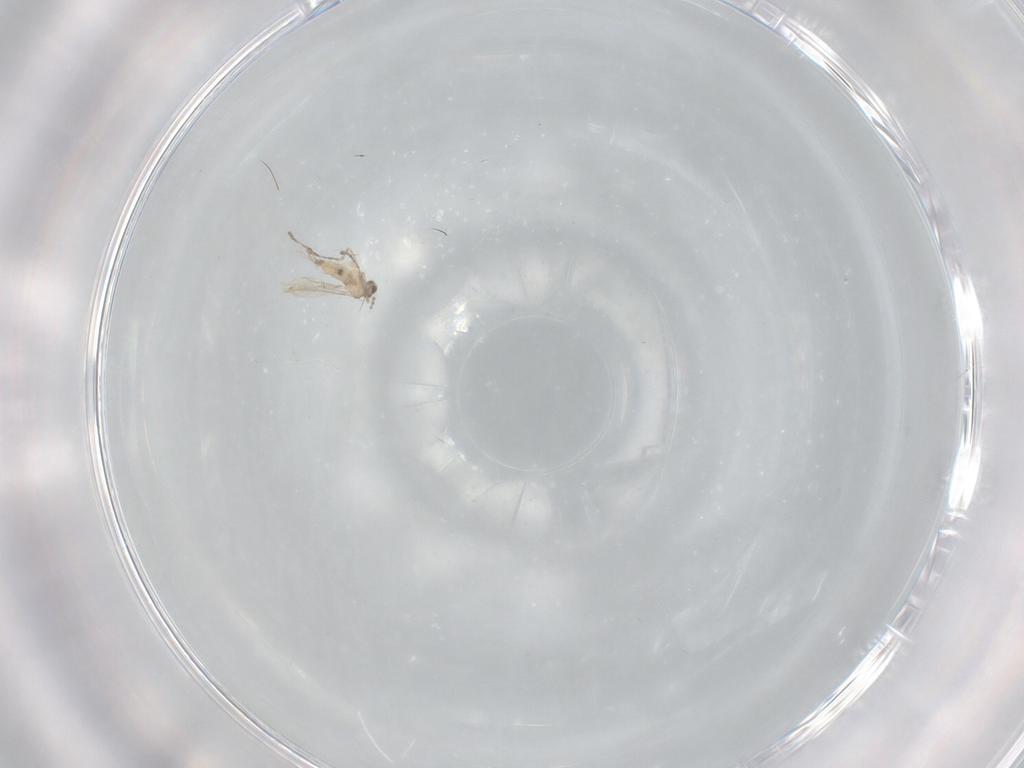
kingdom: Animalia
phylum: Arthropoda
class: Insecta
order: Diptera
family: Cecidomyiidae
